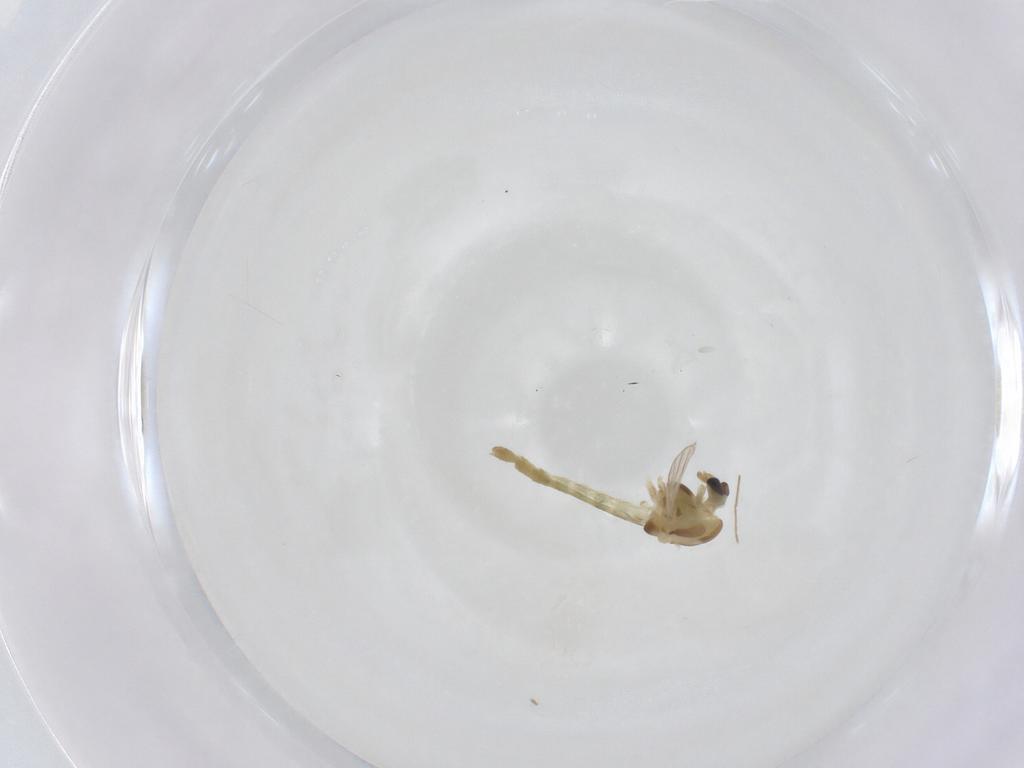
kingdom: Animalia
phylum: Arthropoda
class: Insecta
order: Diptera
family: Chironomidae
